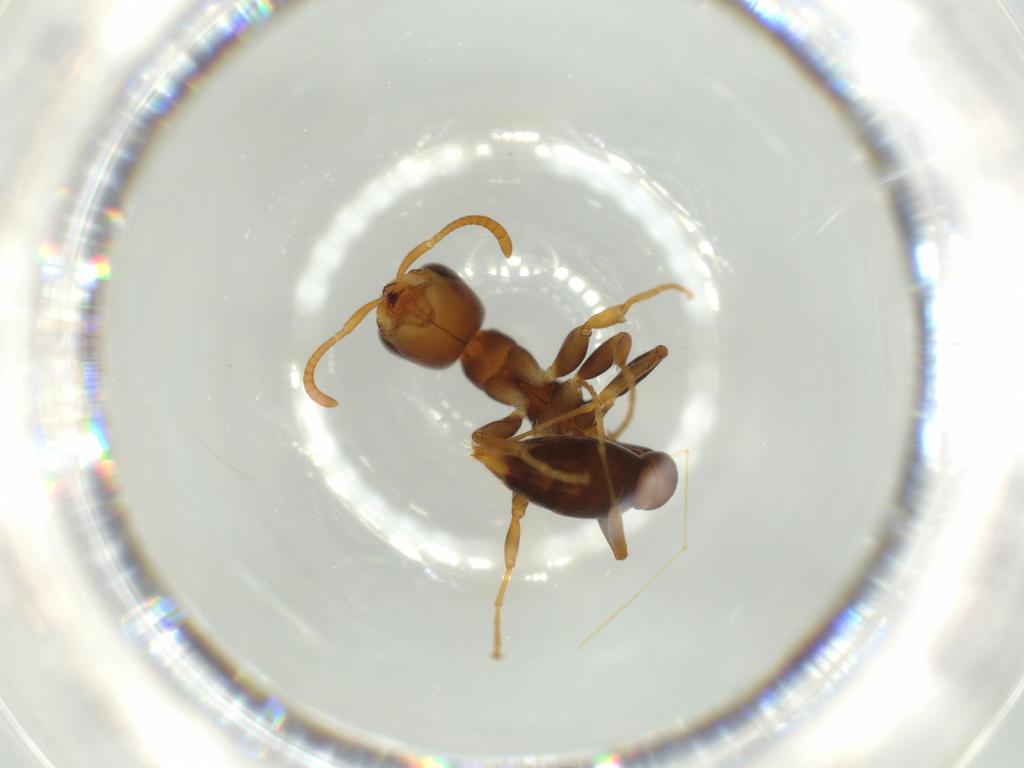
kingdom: Animalia
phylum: Arthropoda
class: Insecta
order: Hymenoptera
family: Formicidae
